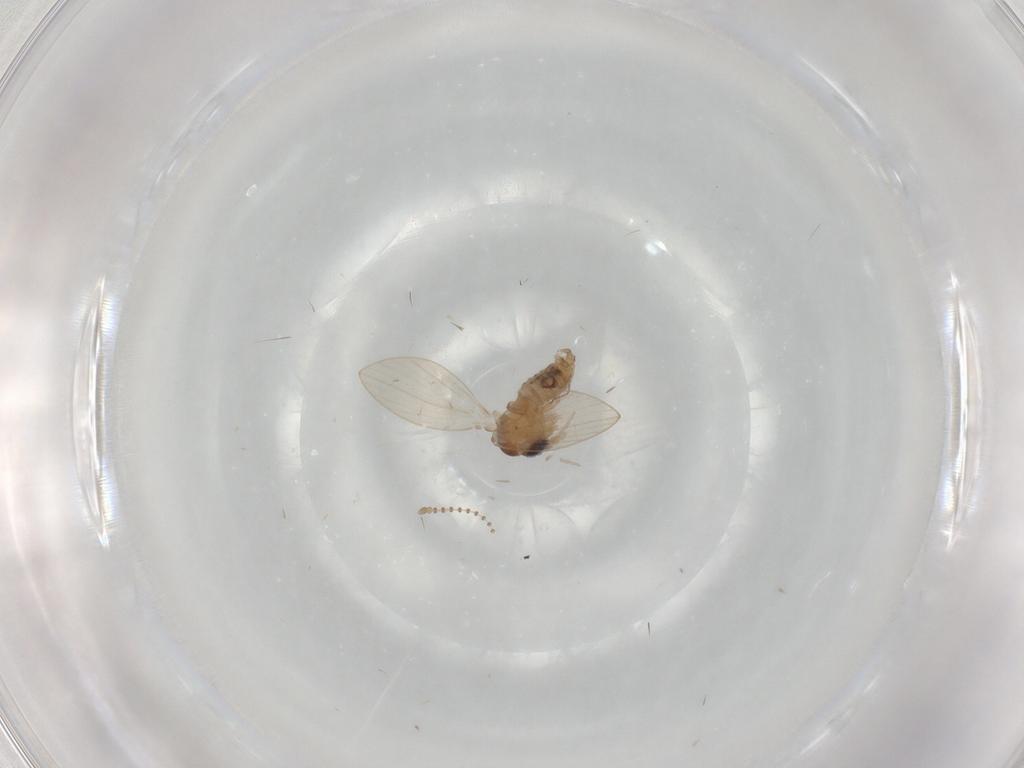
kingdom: Animalia
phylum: Arthropoda
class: Insecta
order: Diptera
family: Psychodidae
